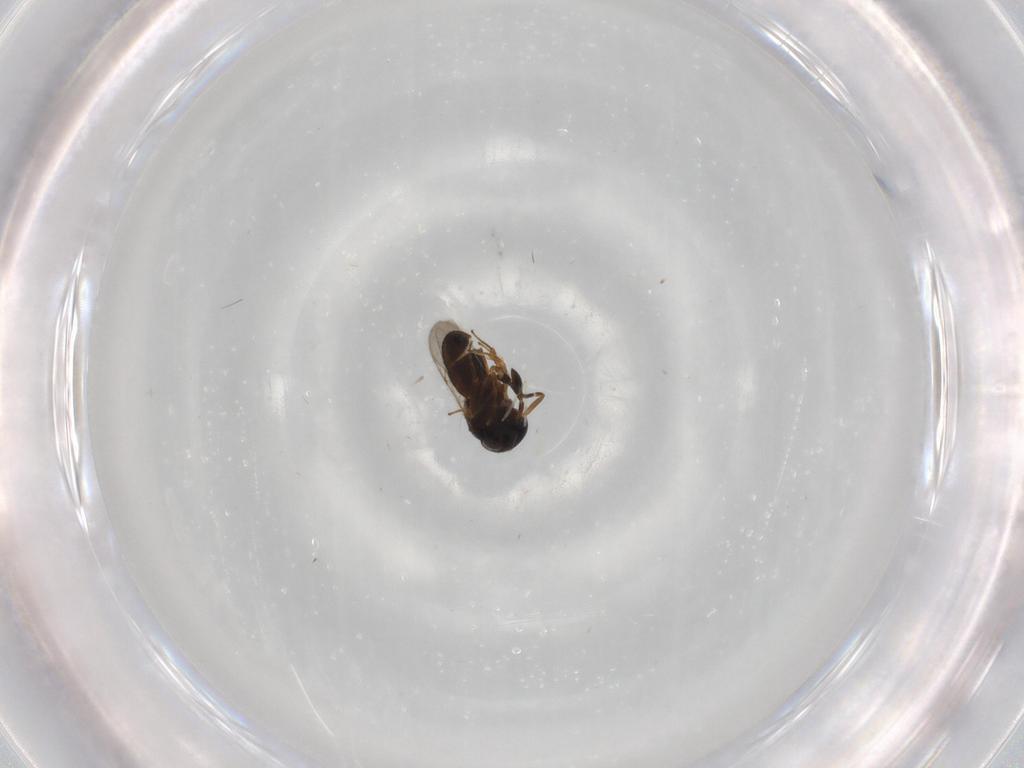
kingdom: Animalia
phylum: Arthropoda
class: Insecta
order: Hymenoptera
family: Scelionidae
